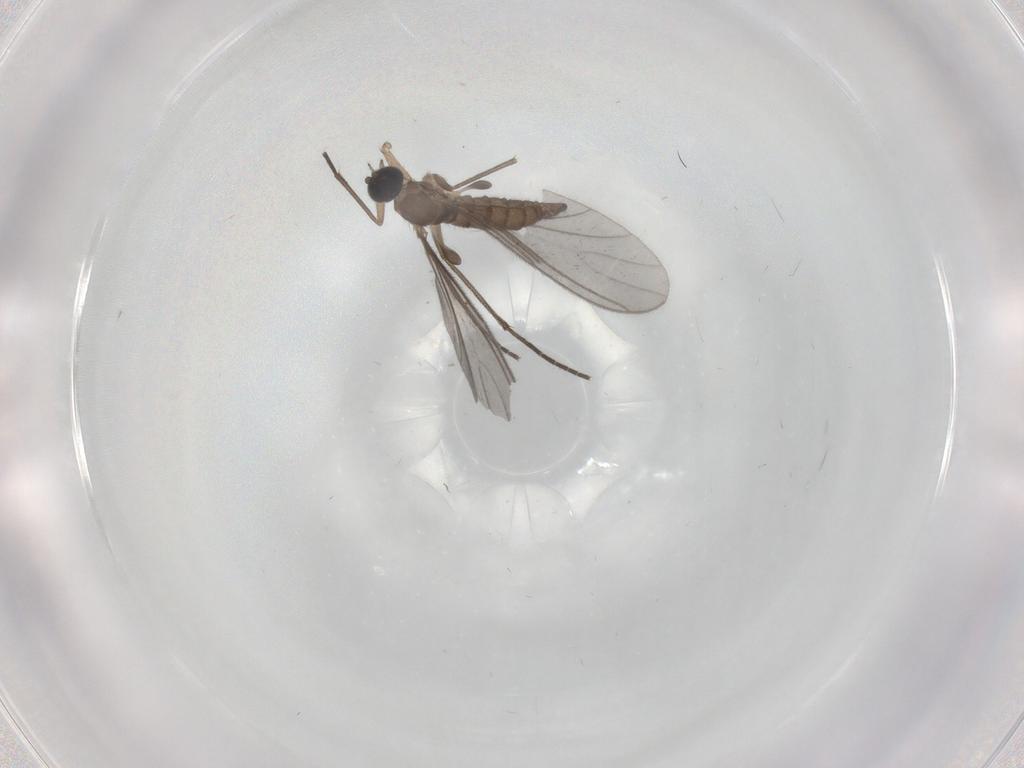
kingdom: Animalia
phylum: Arthropoda
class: Insecta
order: Diptera
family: Sciaridae
